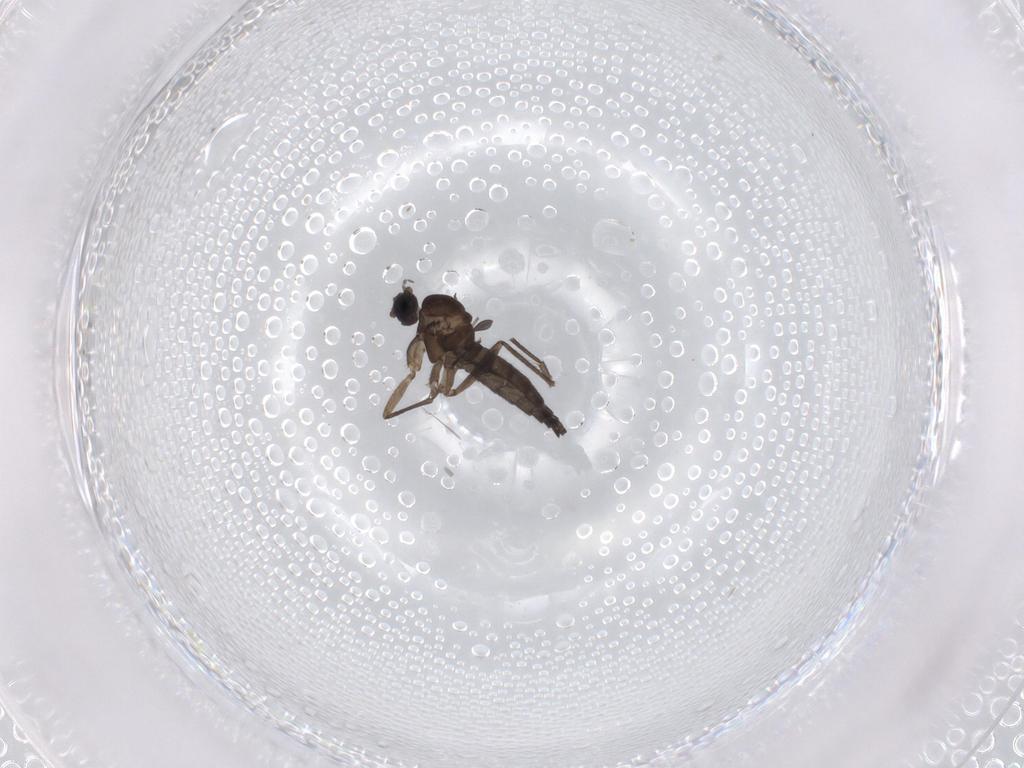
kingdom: Animalia
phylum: Arthropoda
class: Insecta
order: Diptera
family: Sciaridae
